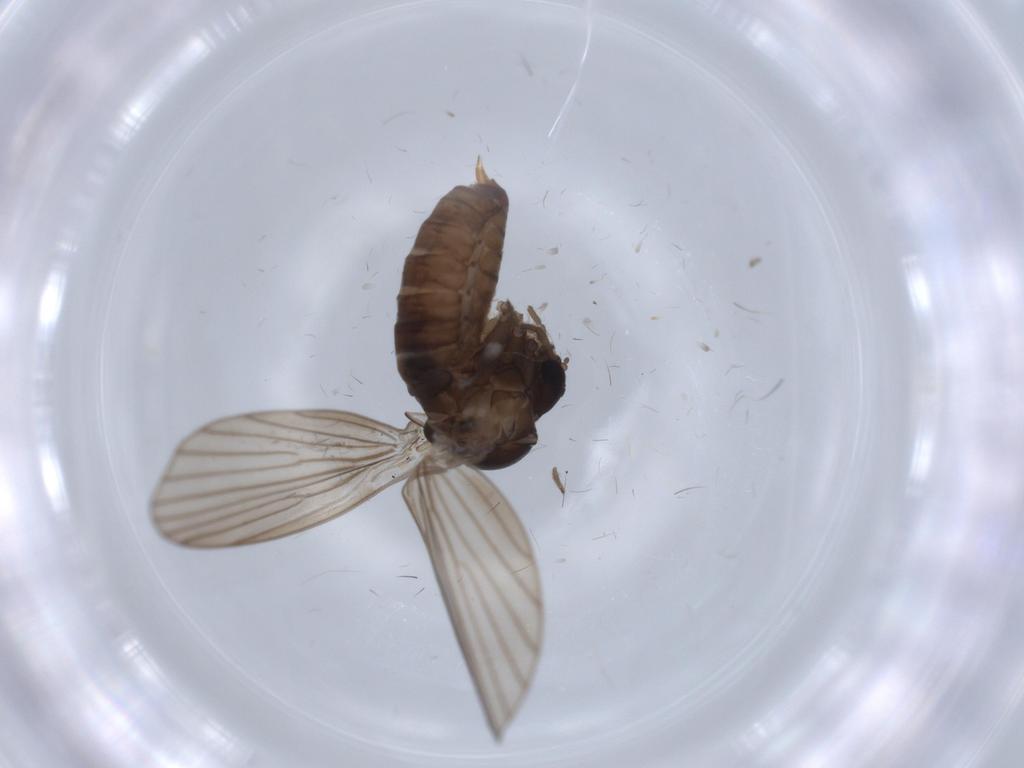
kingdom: Animalia
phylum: Arthropoda
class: Insecta
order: Diptera
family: Psychodidae
